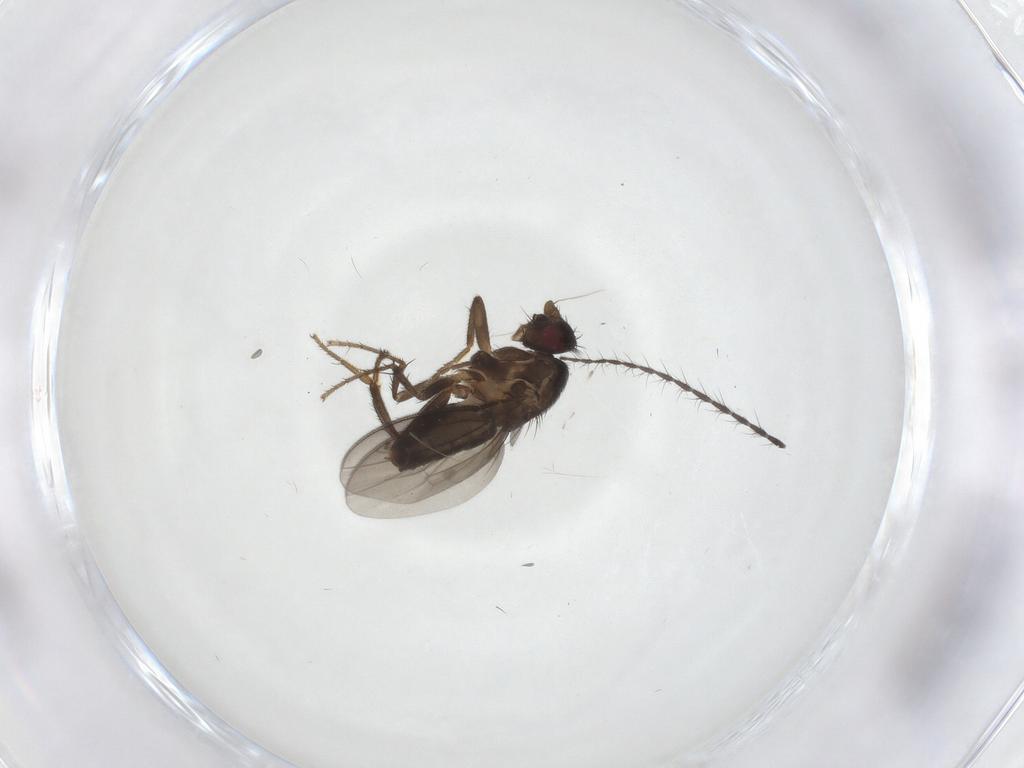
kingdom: Animalia
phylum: Arthropoda
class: Insecta
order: Diptera
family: Sphaeroceridae
